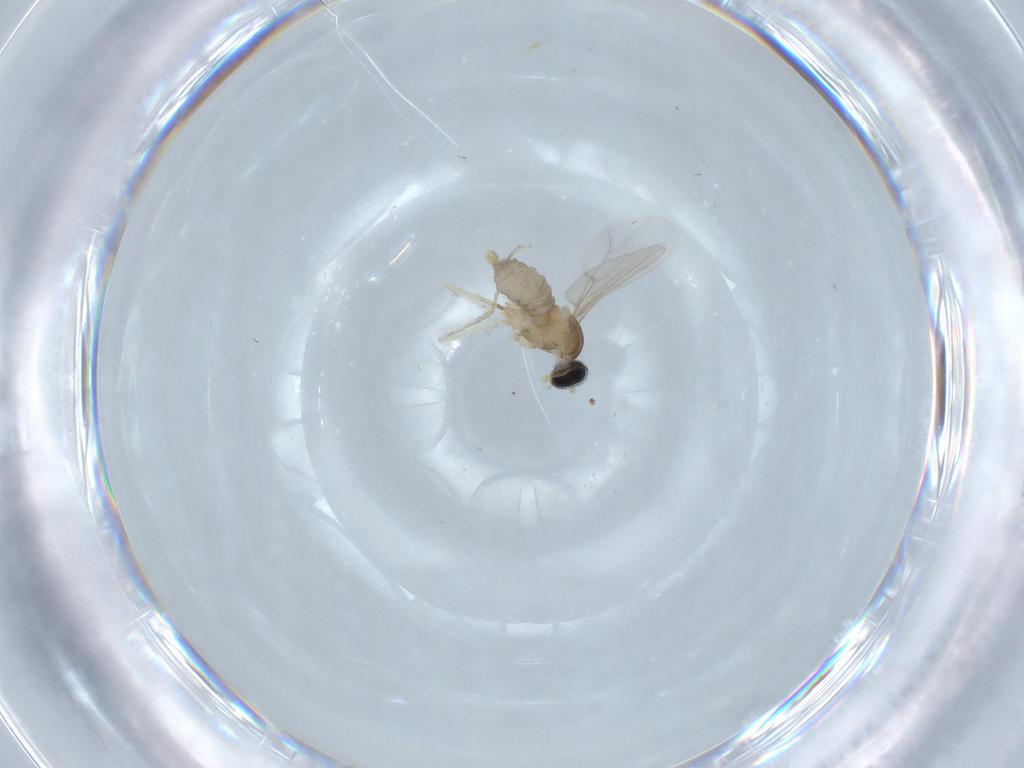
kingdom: Animalia
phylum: Arthropoda
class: Insecta
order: Diptera
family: Cecidomyiidae
